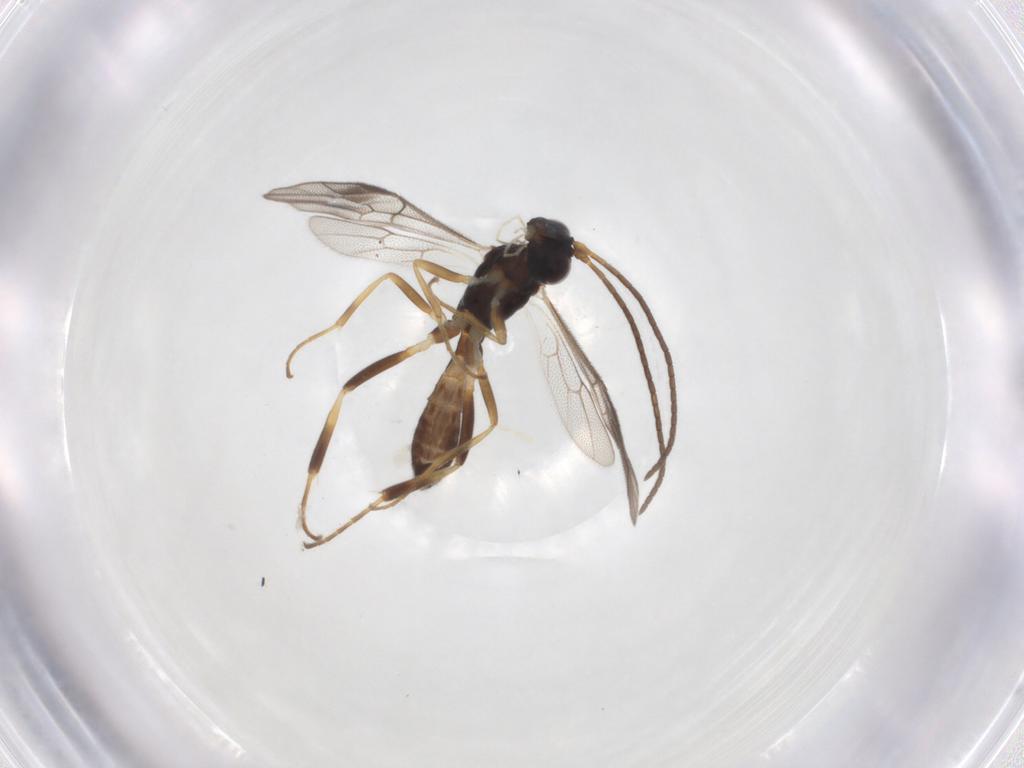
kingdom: Animalia
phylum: Arthropoda
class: Insecta
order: Hymenoptera
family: Ichneumonidae
